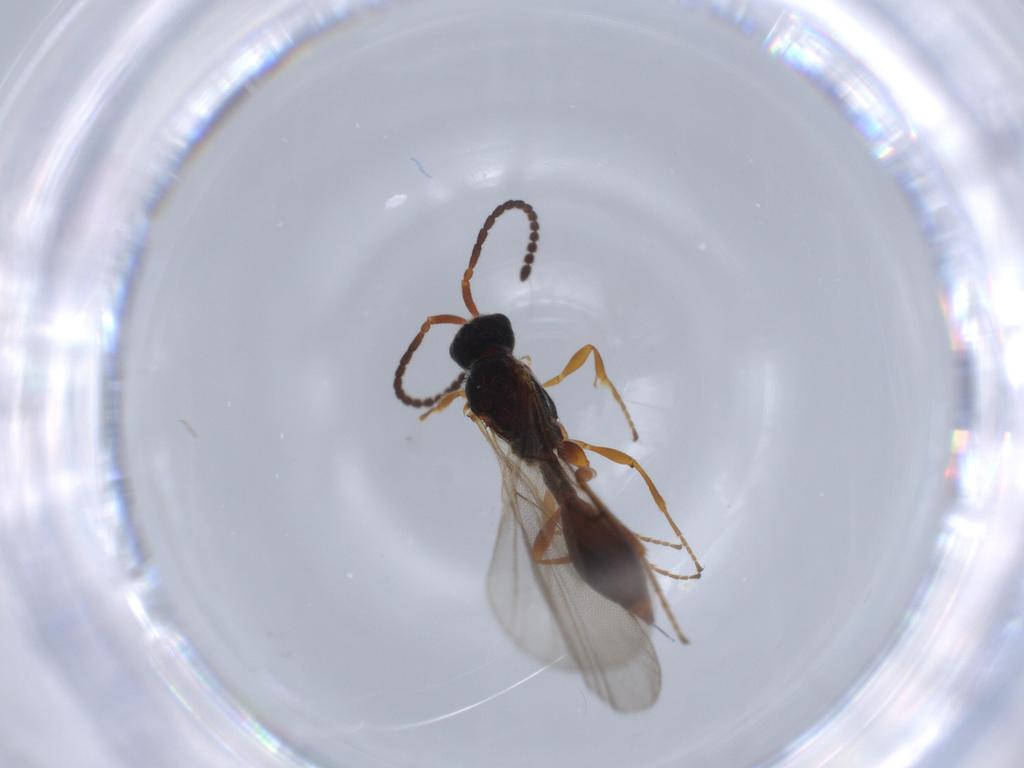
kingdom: Animalia
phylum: Arthropoda
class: Insecta
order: Hymenoptera
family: Diapriidae
